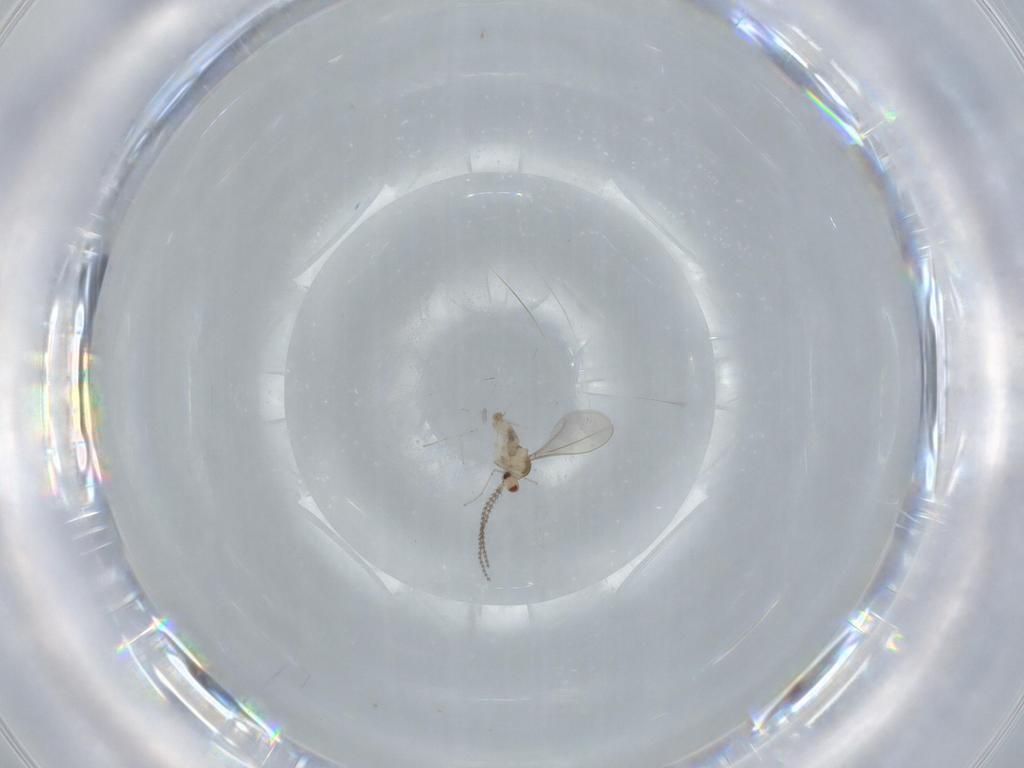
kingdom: Animalia
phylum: Arthropoda
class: Insecta
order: Diptera
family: Cecidomyiidae
